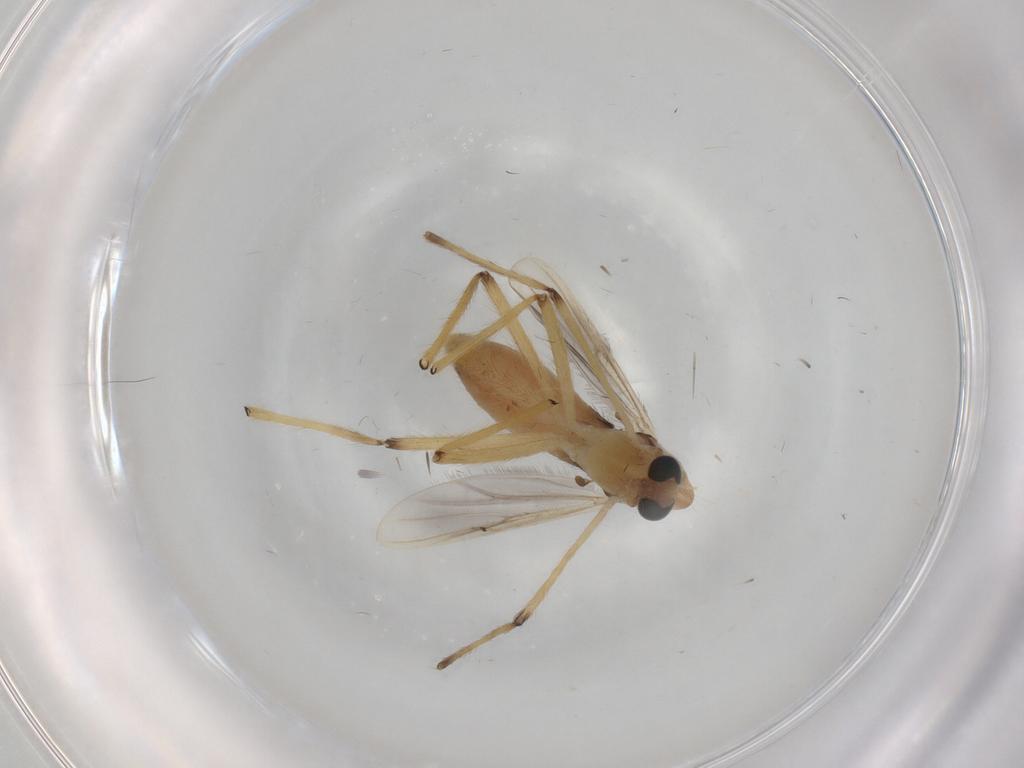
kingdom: Animalia
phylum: Arthropoda
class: Insecta
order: Diptera
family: Chironomidae
